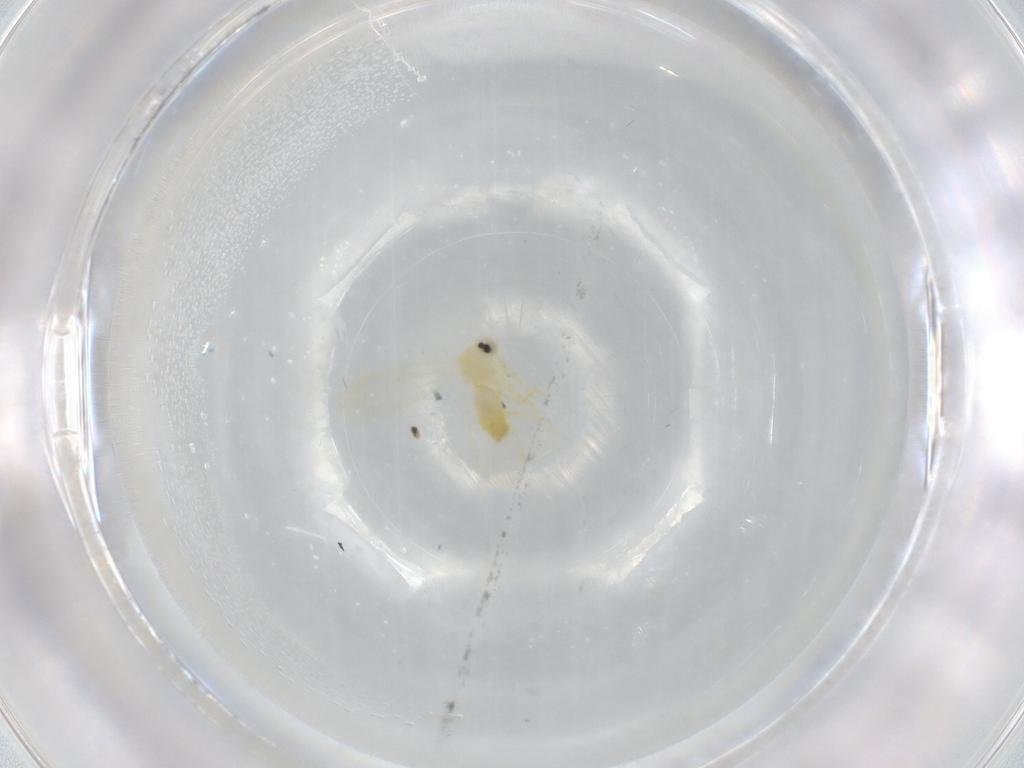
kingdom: Animalia
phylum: Arthropoda
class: Insecta
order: Hemiptera
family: Aleyrodidae
